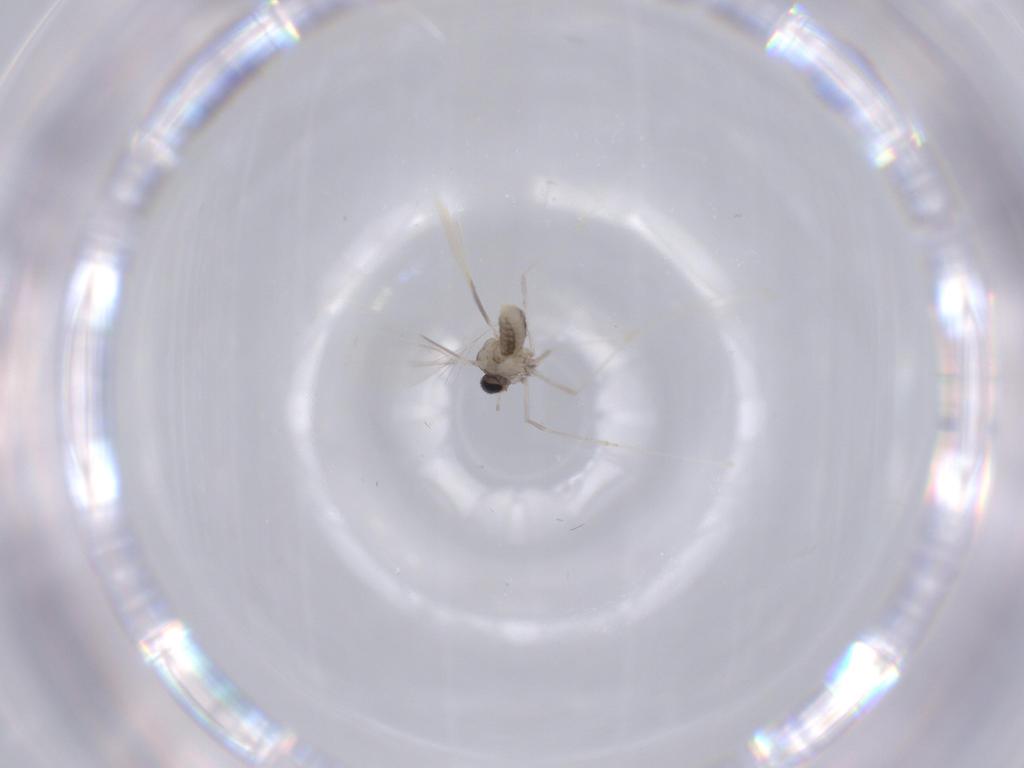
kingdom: Animalia
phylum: Arthropoda
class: Insecta
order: Diptera
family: Cecidomyiidae
